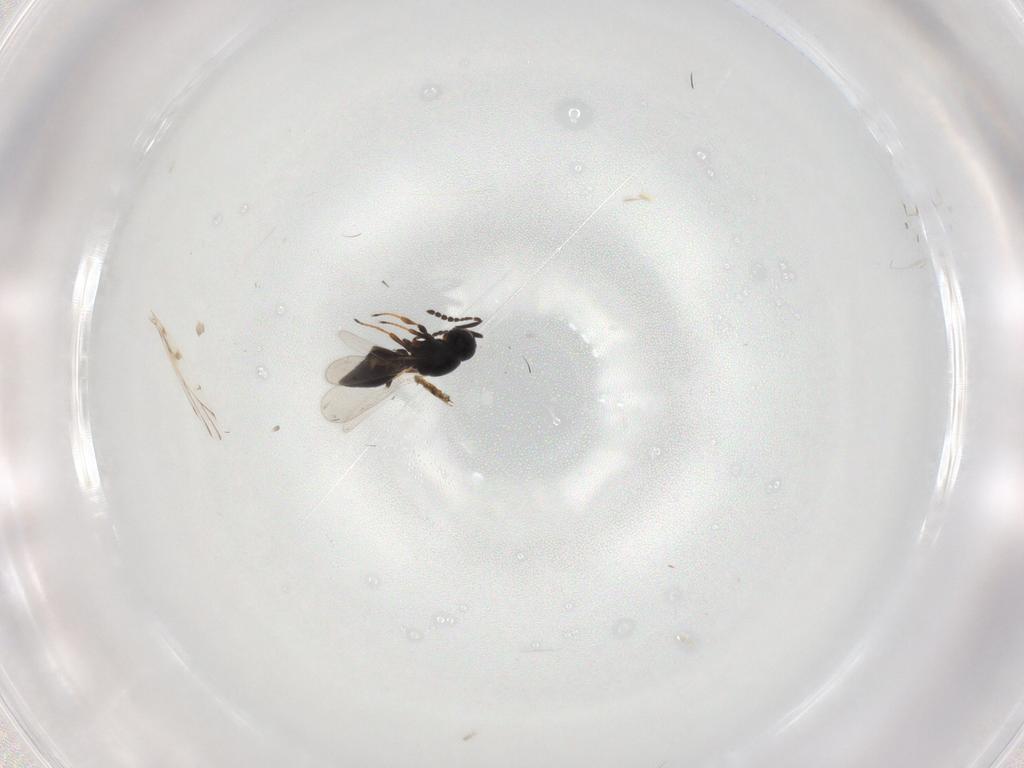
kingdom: Animalia
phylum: Arthropoda
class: Insecta
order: Hymenoptera
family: Platygastridae
